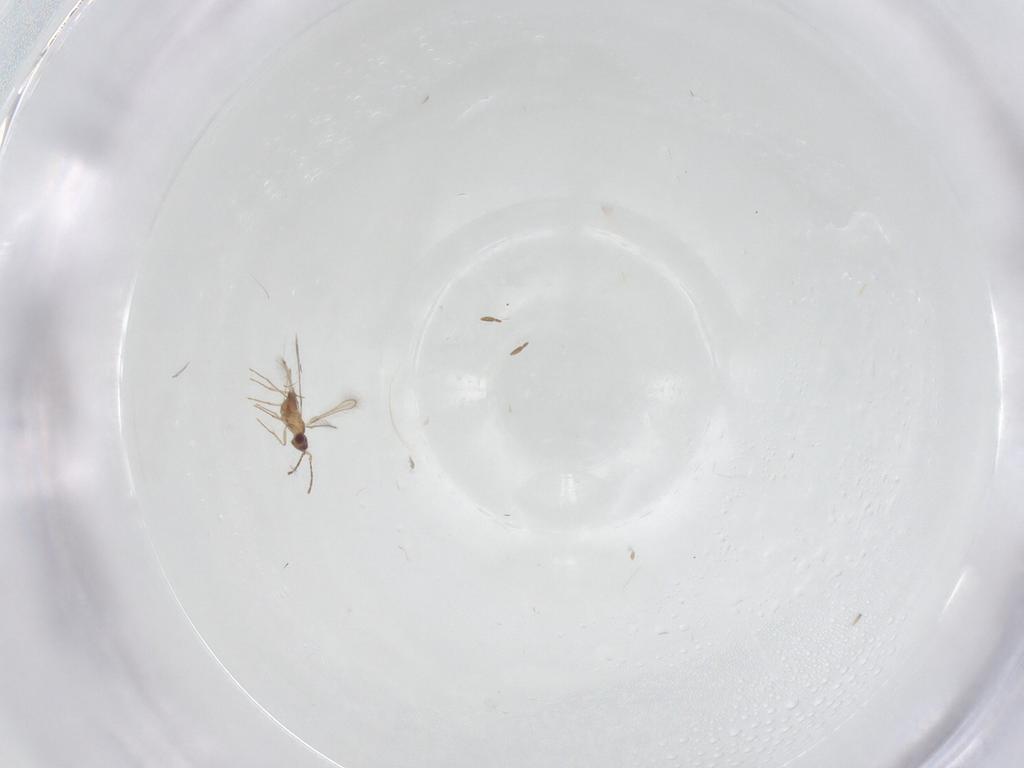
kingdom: Animalia
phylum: Arthropoda
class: Insecta
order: Hymenoptera
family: Mymaridae
